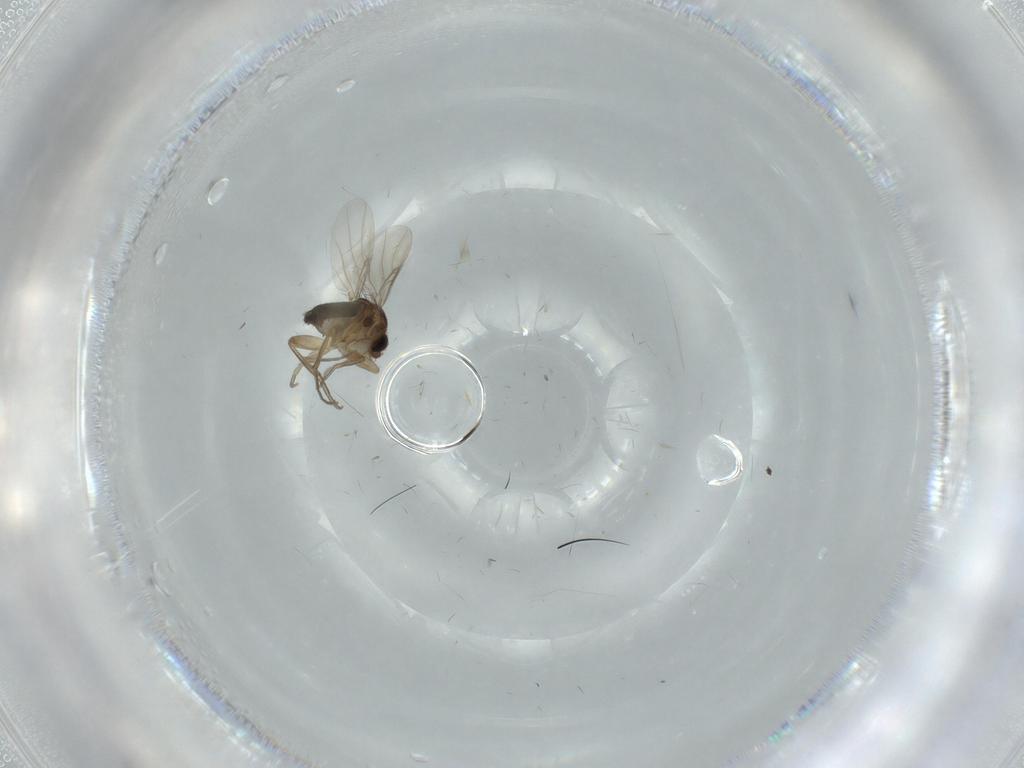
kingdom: Animalia
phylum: Arthropoda
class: Insecta
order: Diptera
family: Phoridae
